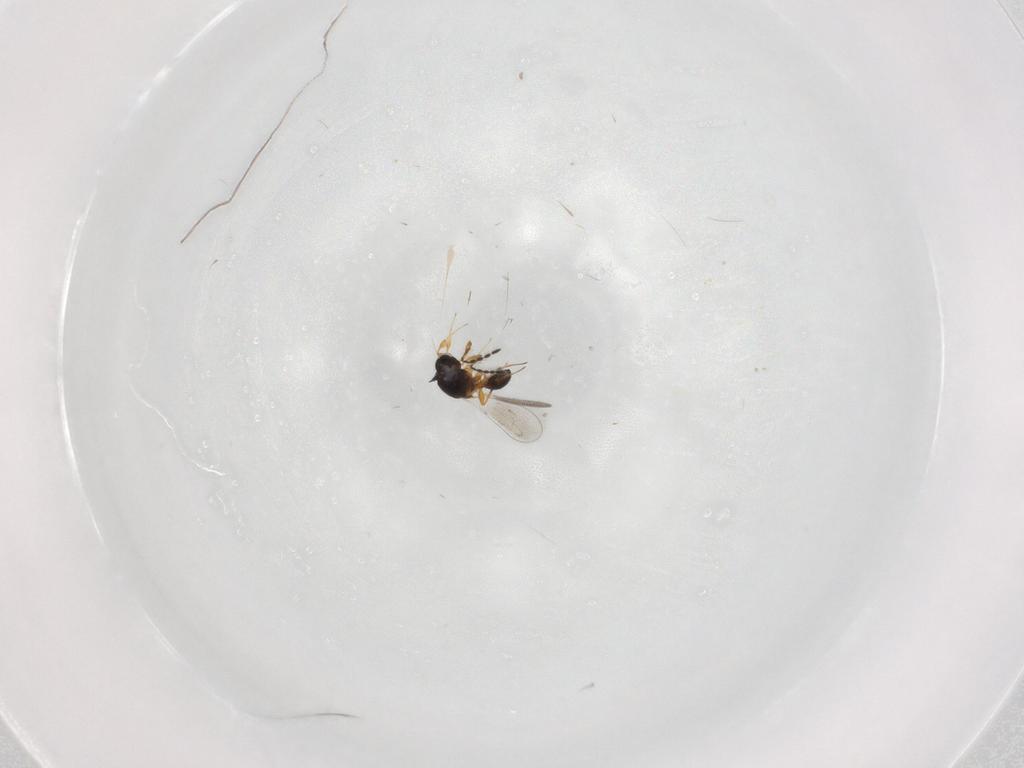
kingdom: Animalia
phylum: Arthropoda
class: Insecta
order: Hymenoptera
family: Platygastridae
